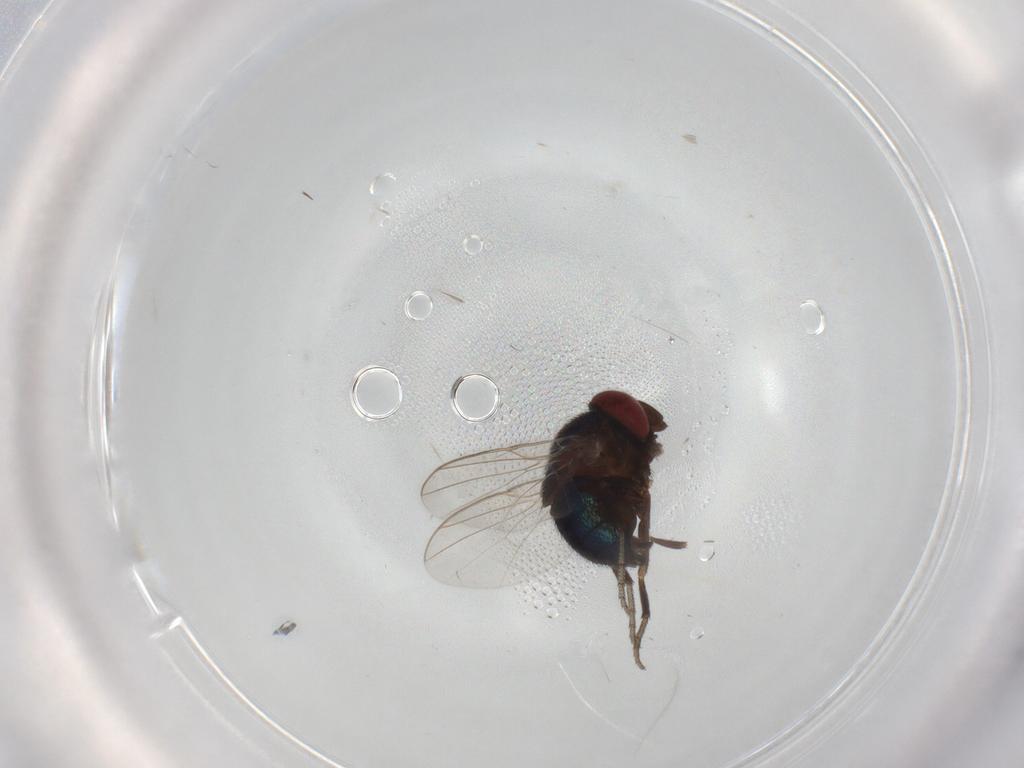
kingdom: Animalia
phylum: Arthropoda
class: Insecta
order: Diptera
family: Cryptochetidae
